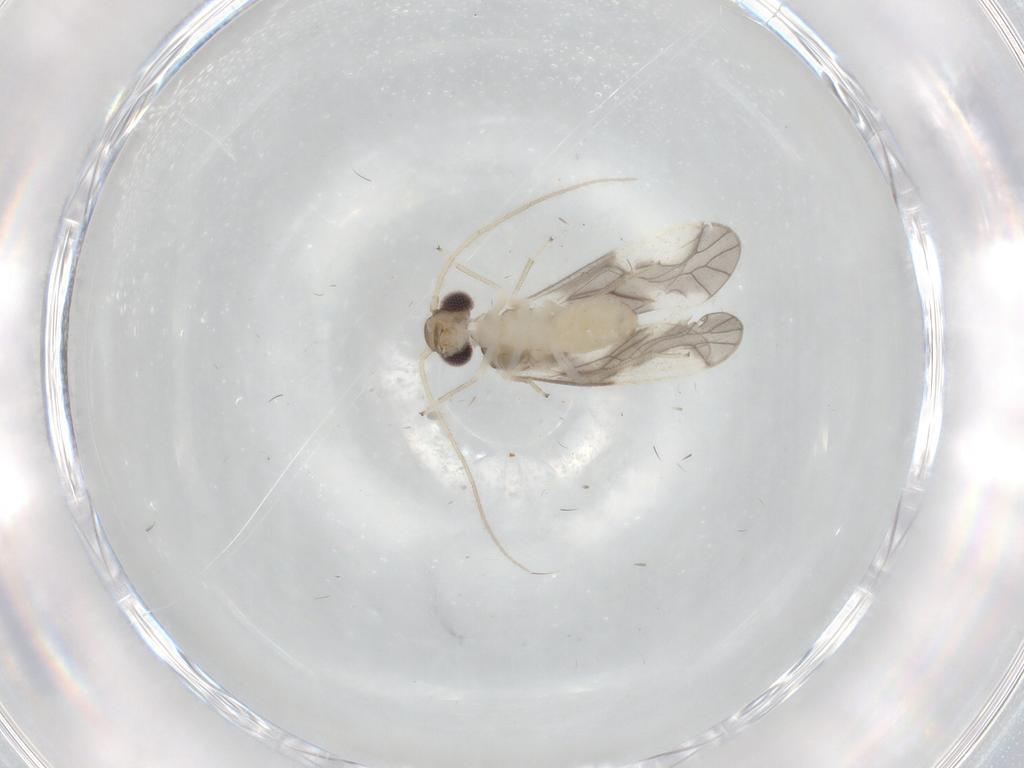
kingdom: Animalia
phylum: Arthropoda
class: Insecta
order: Psocodea
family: Caeciliusidae
